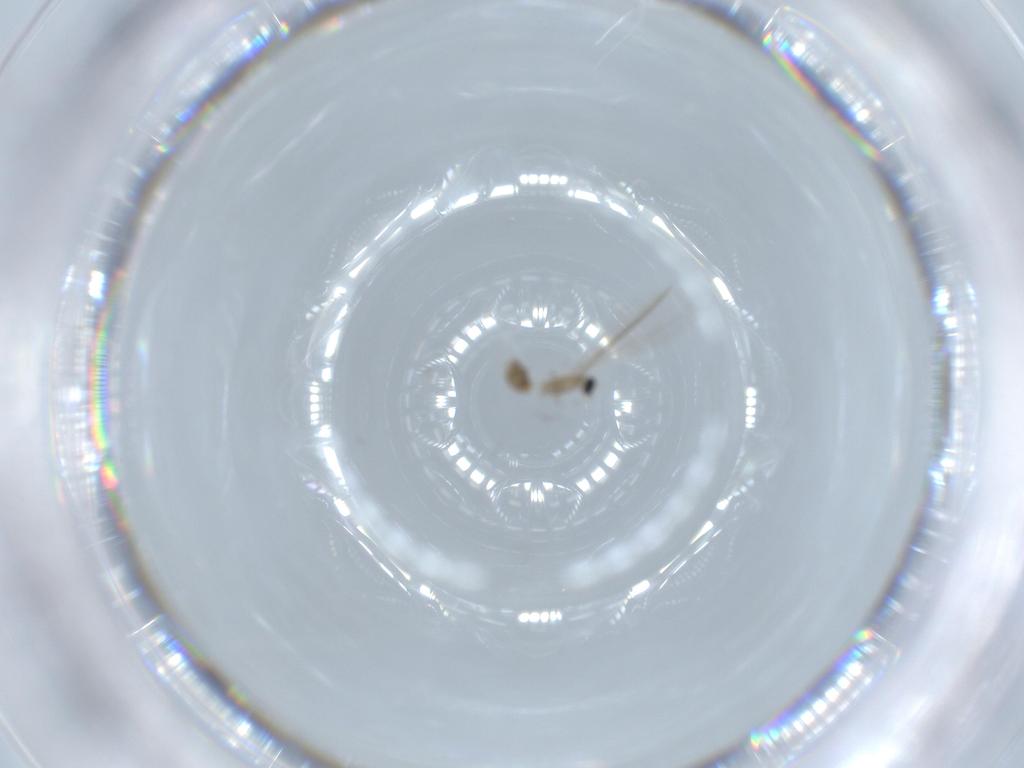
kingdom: Animalia
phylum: Arthropoda
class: Insecta
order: Diptera
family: Cecidomyiidae
